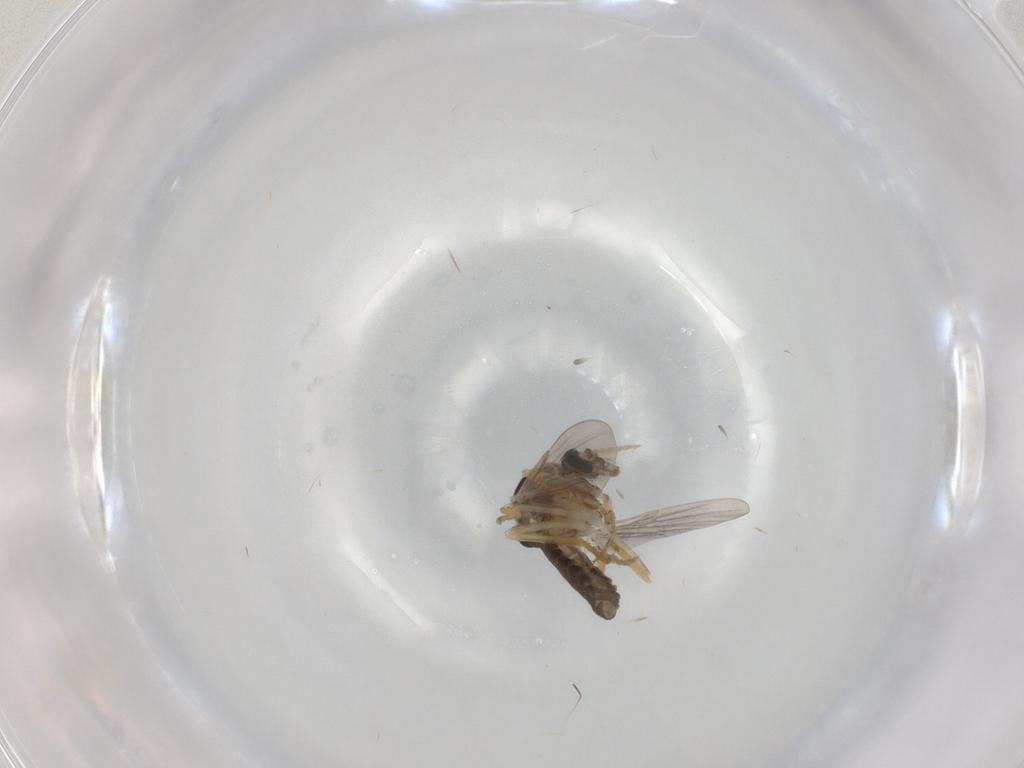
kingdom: Animalia
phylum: Arthropoda
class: Insecta
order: Diptera
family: Ceratopogonidae
